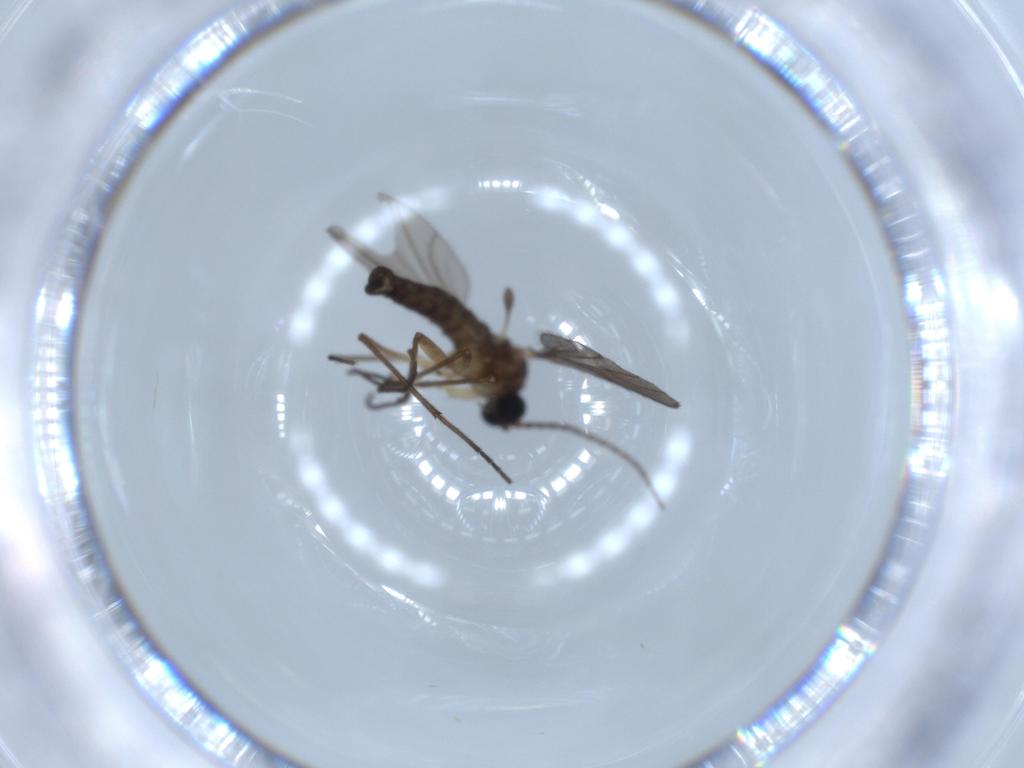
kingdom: Animalia
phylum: Arthropoda
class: Insecta
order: Diptera
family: Sciaridae
